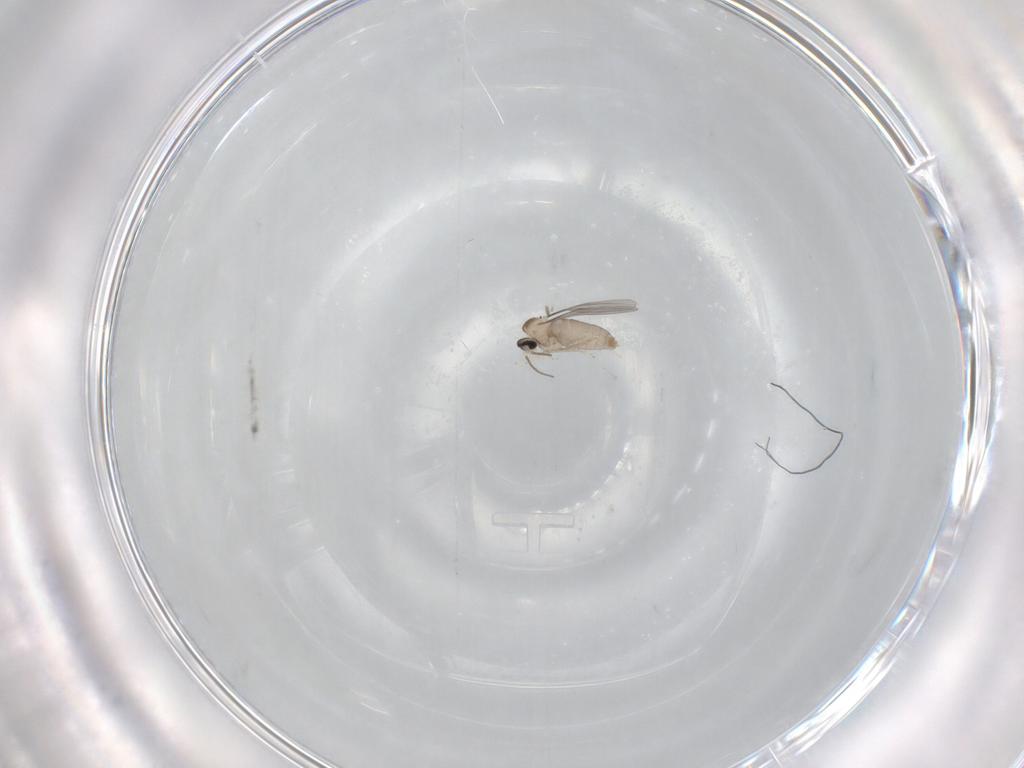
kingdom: Animalia
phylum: Arthropoda
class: Insecta
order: Diptera
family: Cecidomyiidae
